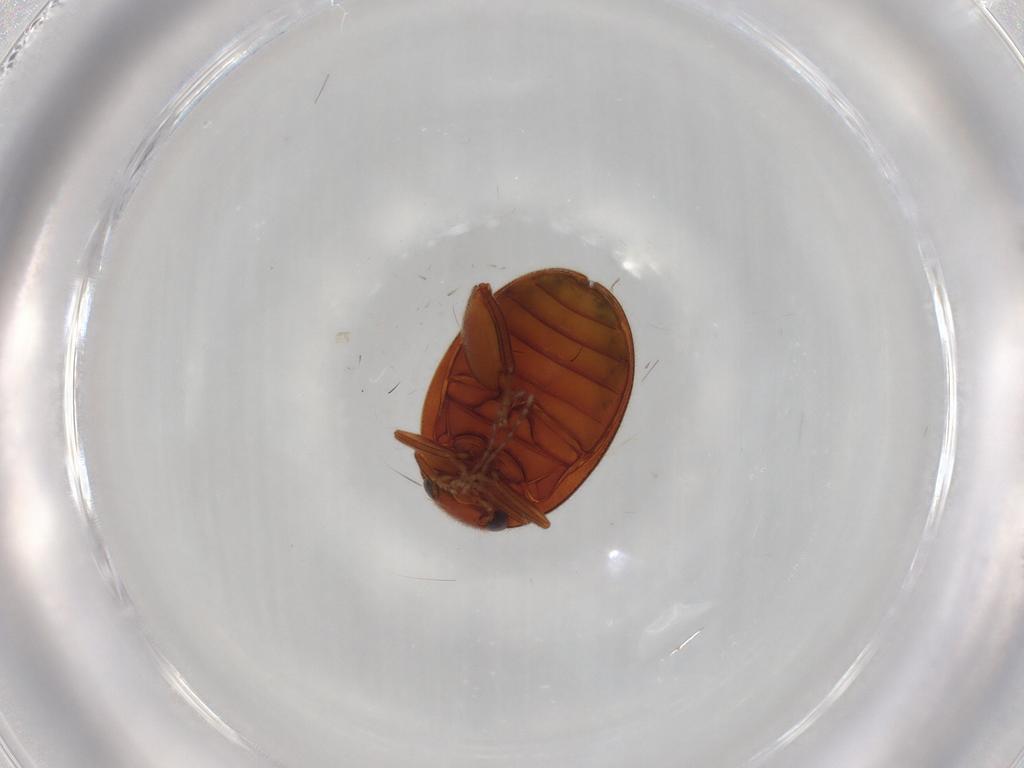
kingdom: Animalia
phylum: Arthropoda
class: Insecta
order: Coleoptera
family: Scirtidae
